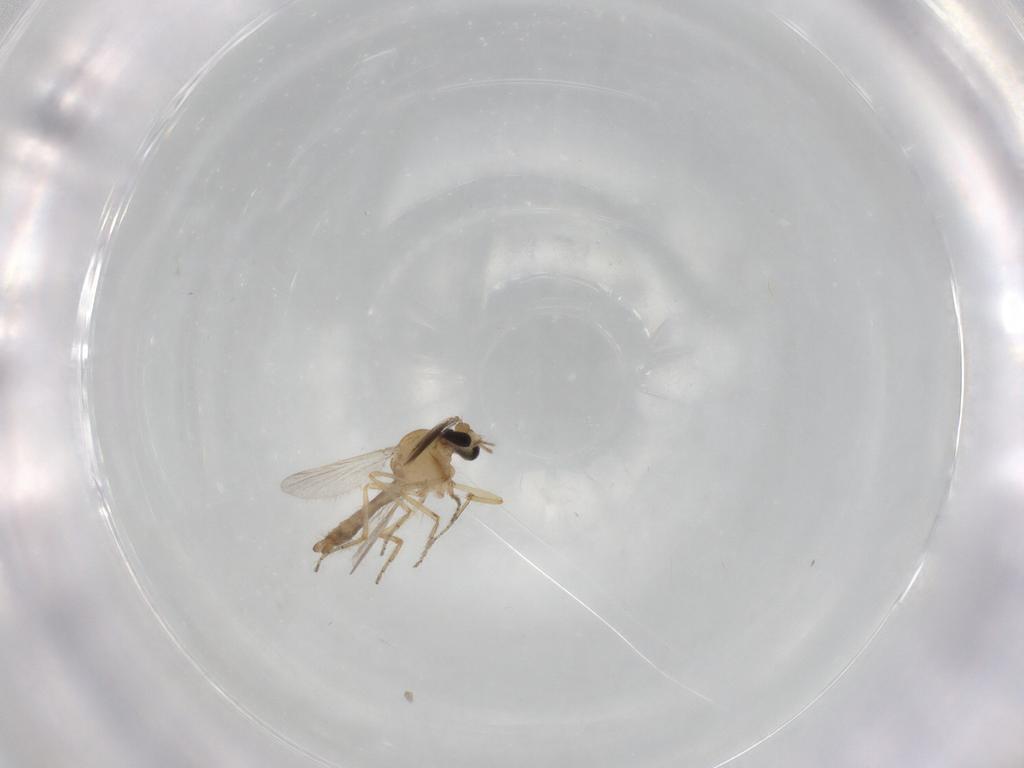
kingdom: Animalia
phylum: Arthropoda
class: Insecta
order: Diptera
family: Ceratopogonidae
